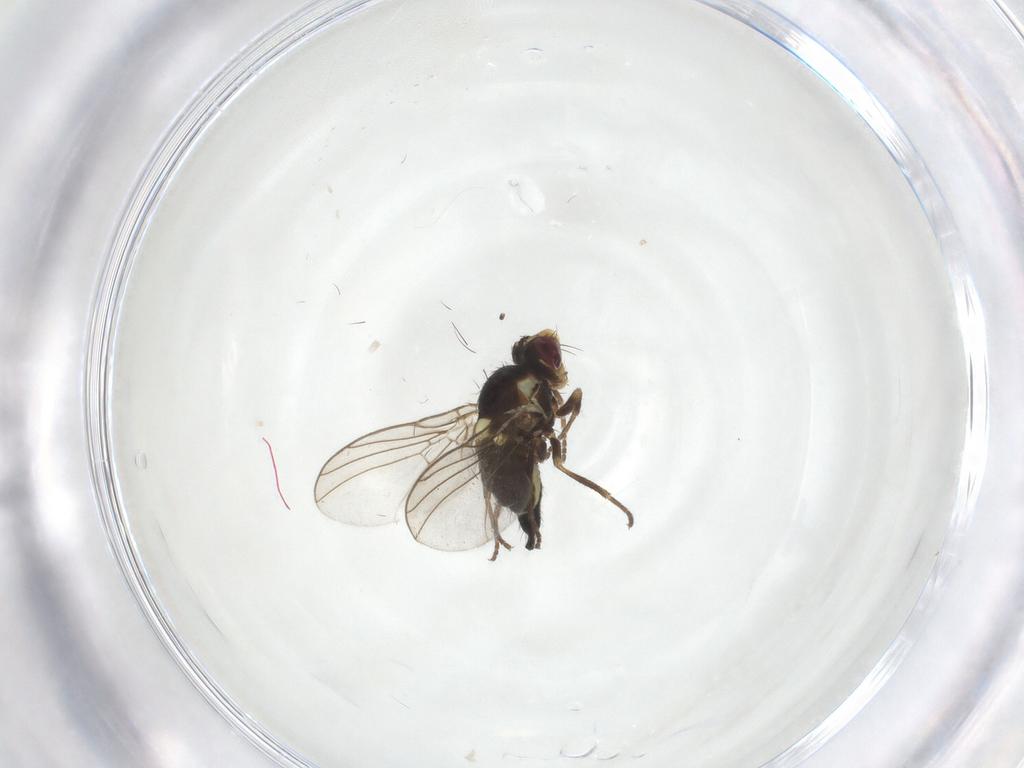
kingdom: Animalia
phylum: Arthropoda
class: Insecta
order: Diptera
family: Agromyzidae
